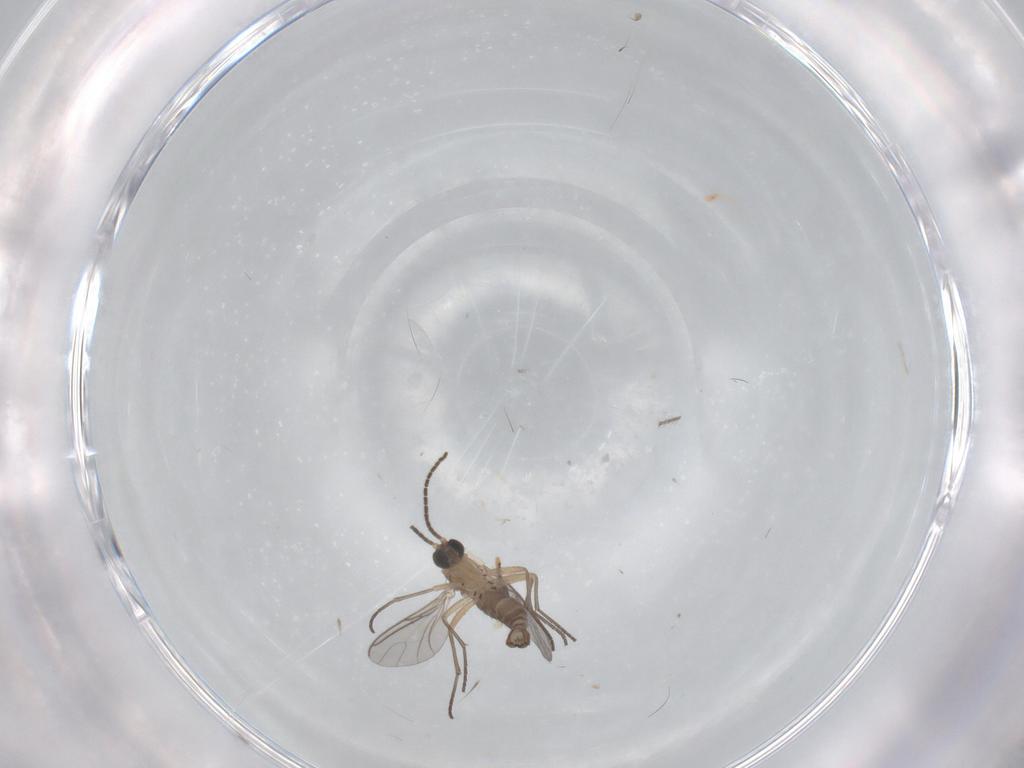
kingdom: Animalia
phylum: Arthropoda
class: Insecta
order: Diptera
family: Sciaridae
